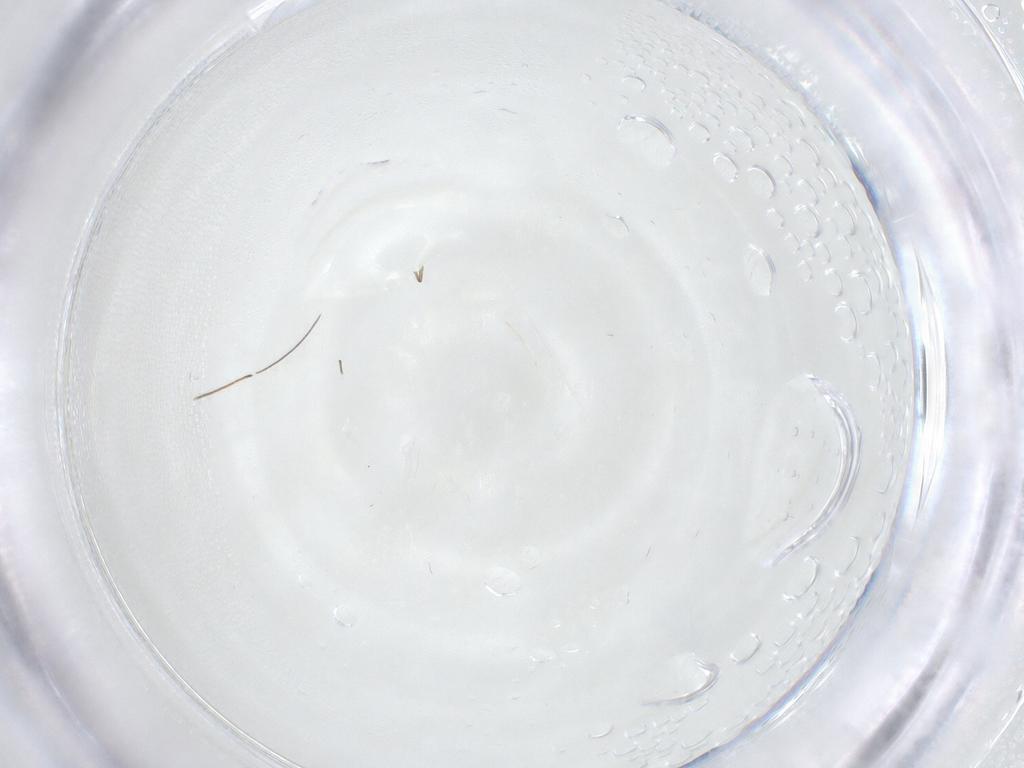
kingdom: Animalia
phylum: Arthropoda
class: Insecta
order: Diptera
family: Chironomidae
